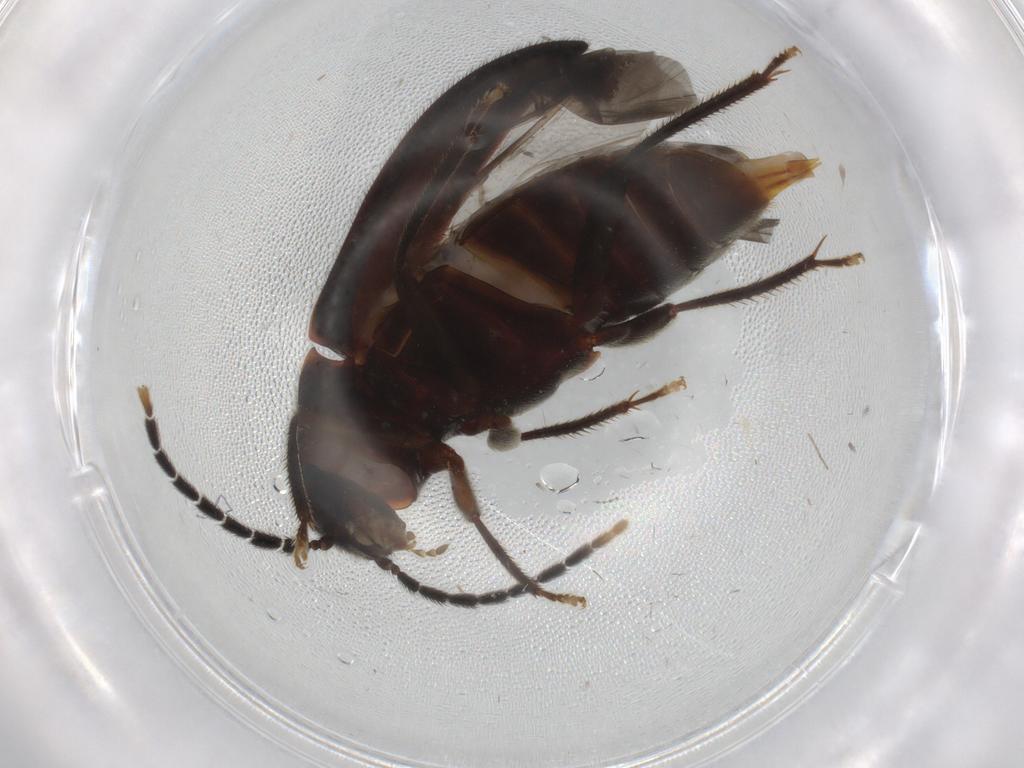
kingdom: Animalia
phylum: Arthropoda
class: Insecta
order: Coleoptera
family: Ptilodactylidae
